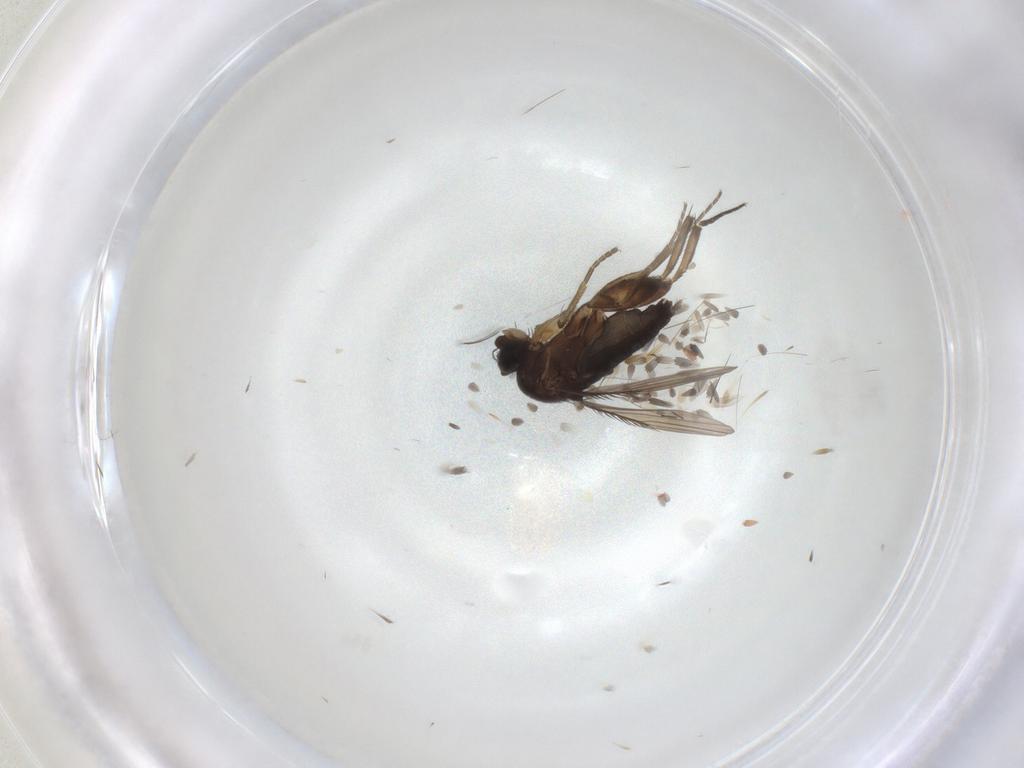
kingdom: Animalia
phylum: Arthropoda
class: Insecta
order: Diptera
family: Phoridae
